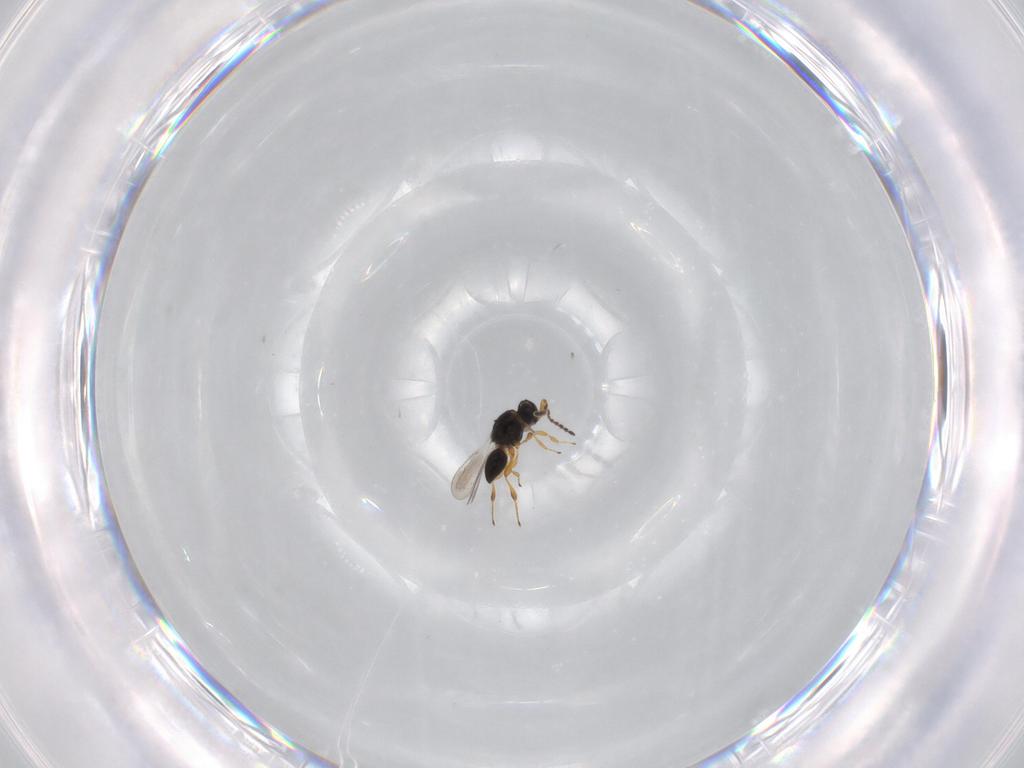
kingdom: Animalia
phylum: Arthropoda
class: Insecta
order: Hymenoptera
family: Platygastridae
